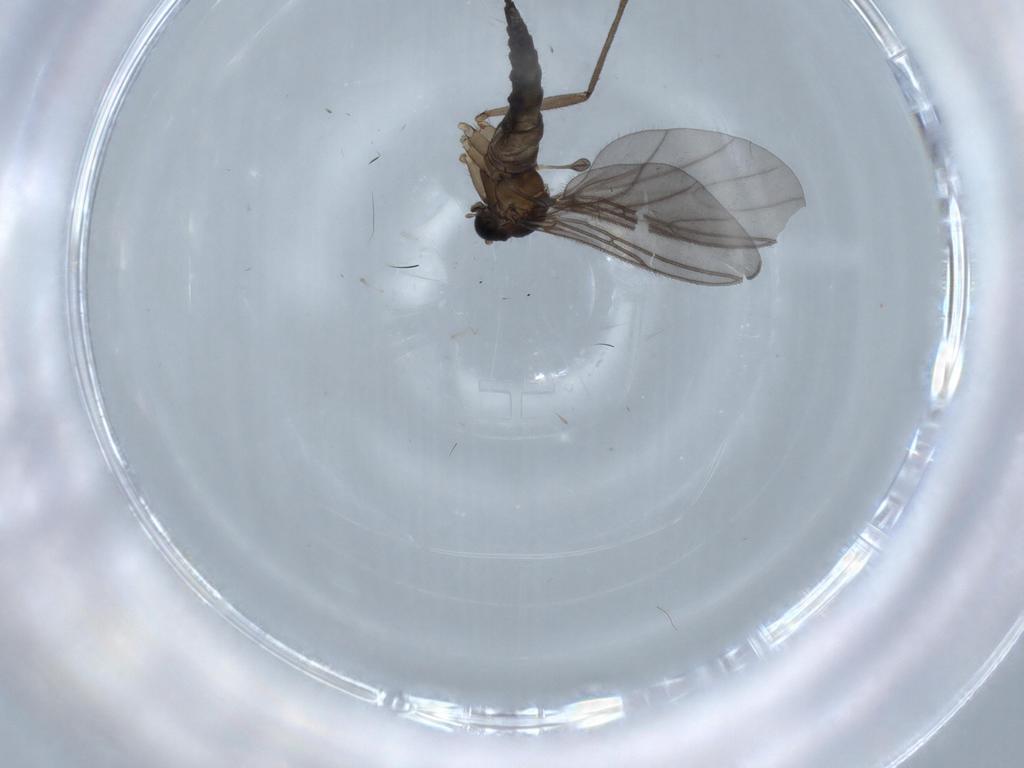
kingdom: Animalia
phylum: Arthropoda
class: Insecta
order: Diptera
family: Sciaridae
